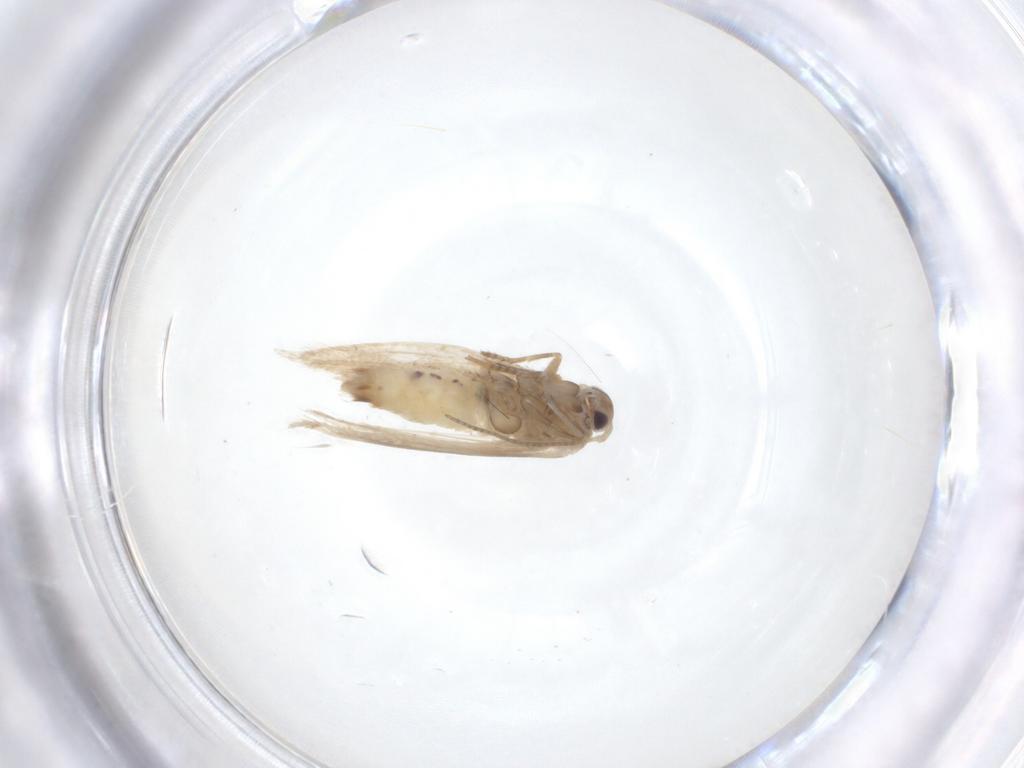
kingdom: Animalia
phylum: Arthropoda
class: Insecta
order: Lepidoptera
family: Bucculatricidae
